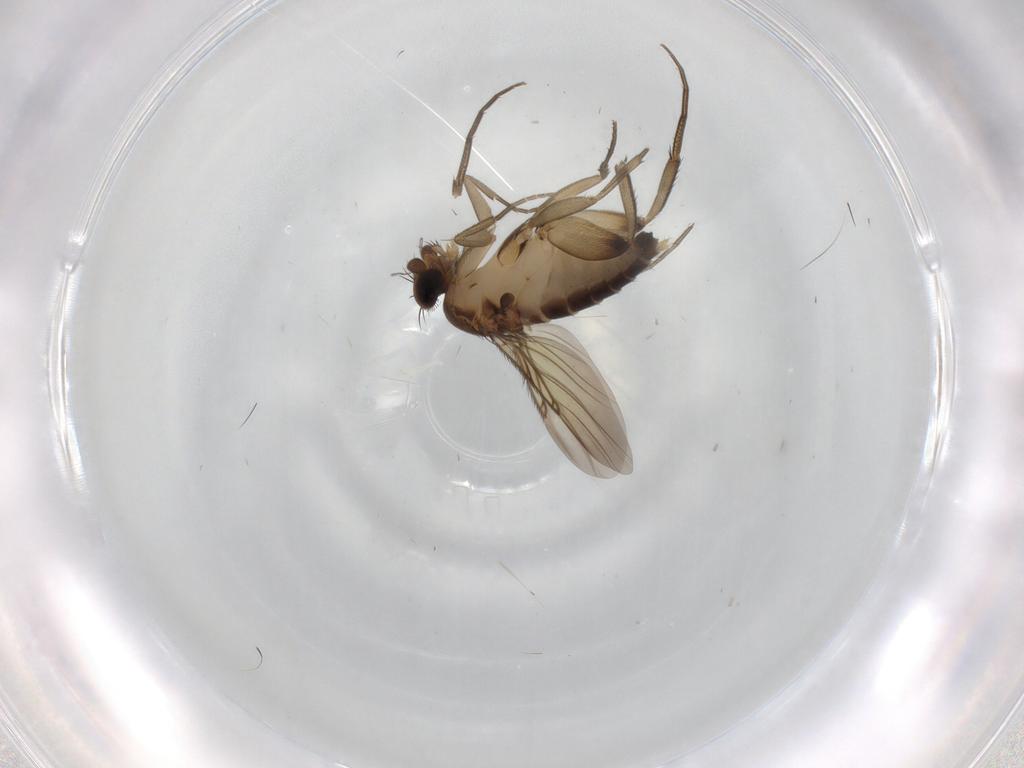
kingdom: Animalia
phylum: Arthropoda
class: Insecta
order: Diptera
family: Phoridae
